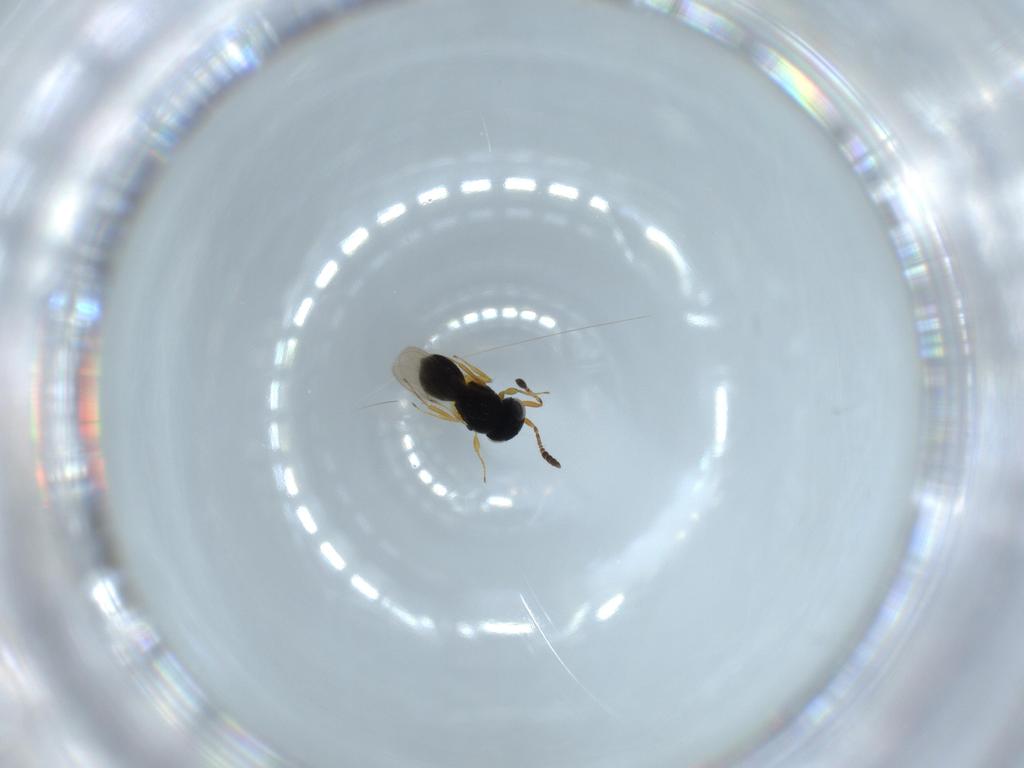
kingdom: Animalia
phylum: Arthropoda
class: Insecta
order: Hymenoptera
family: Scelionidae
